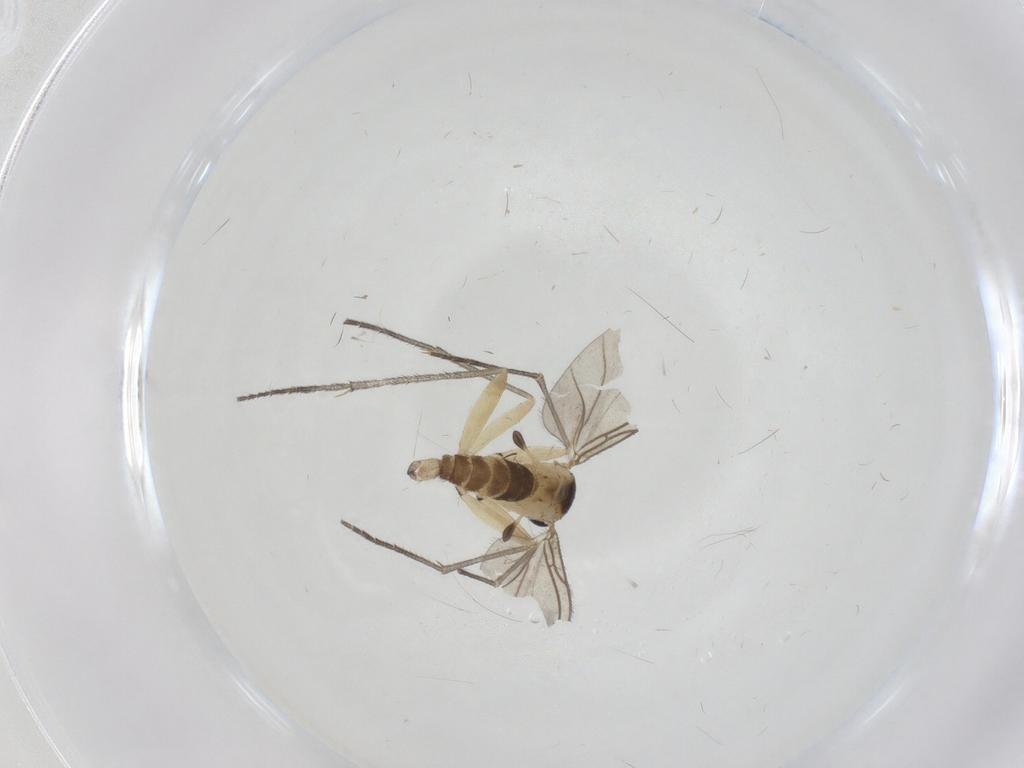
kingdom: Animalia
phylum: Arthropoda
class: Insecta
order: Diptera
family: Sciaridae
